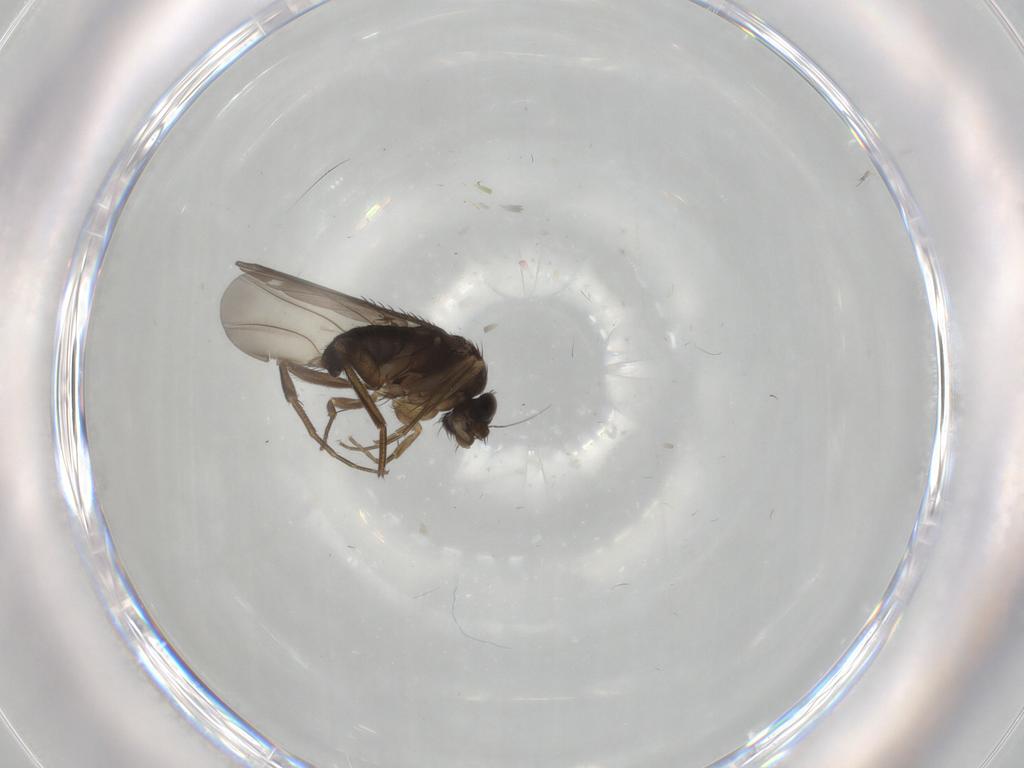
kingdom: Animalia
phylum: Arthropoda
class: Insecta
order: Diptera
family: Phoridae
